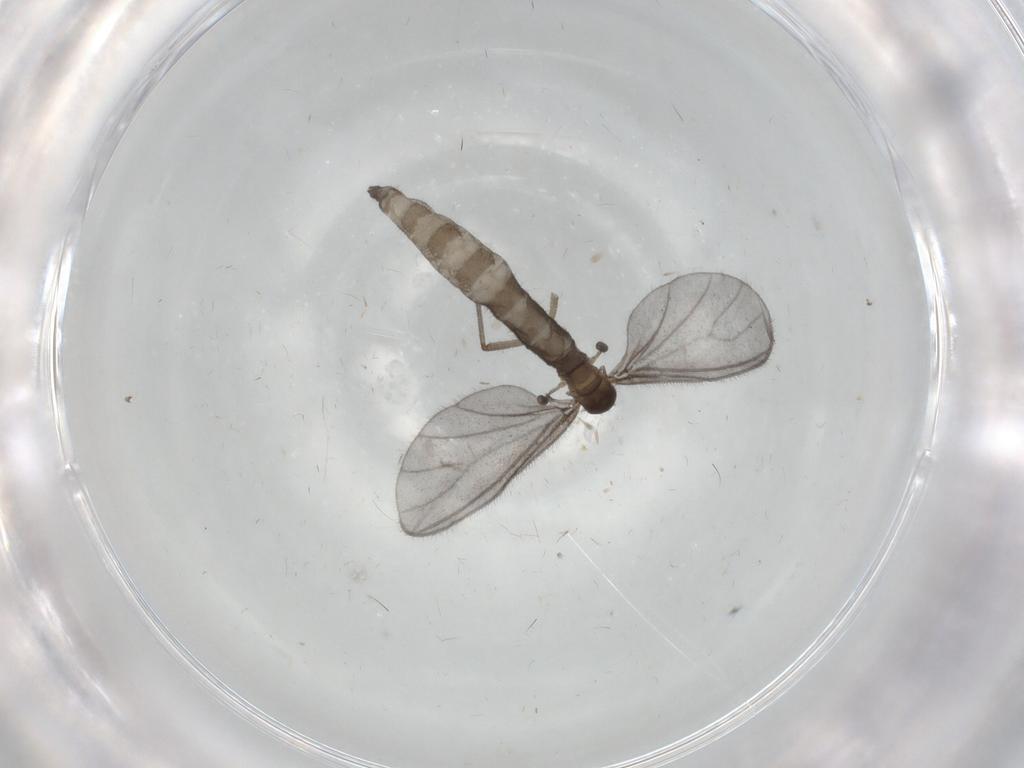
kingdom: Animalia
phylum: Arthropoda
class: Insecta
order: Diptera
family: Sciaridae
